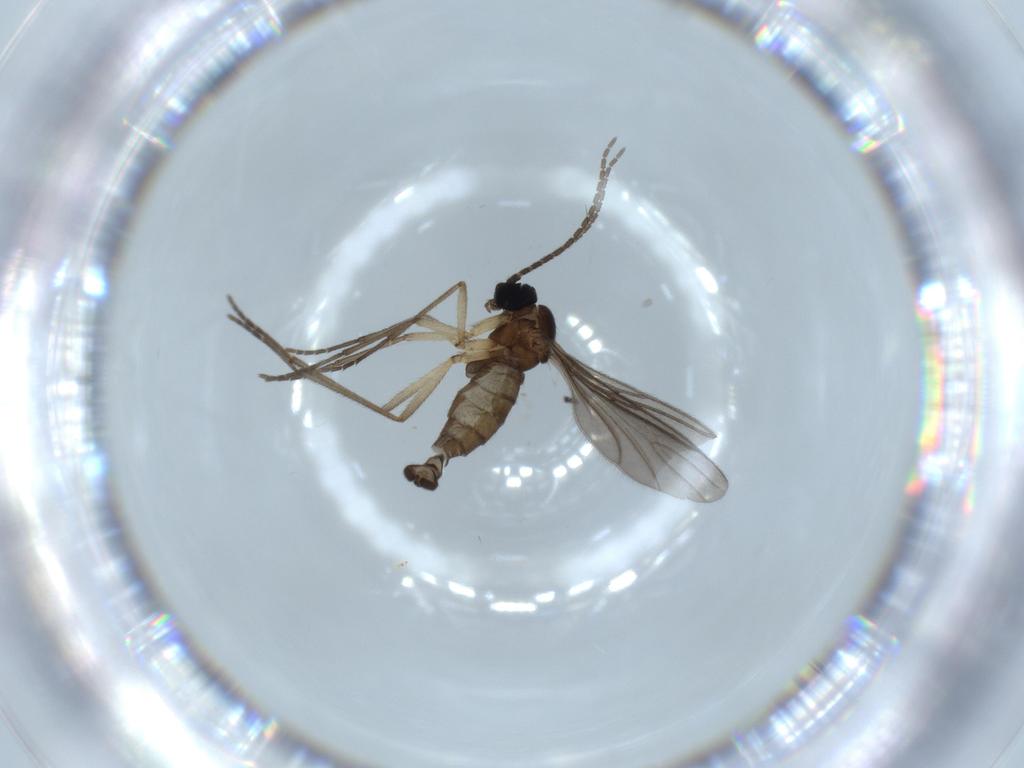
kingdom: Animalia
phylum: Arthropoda
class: Insecta
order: Diptera
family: Sciaridae
